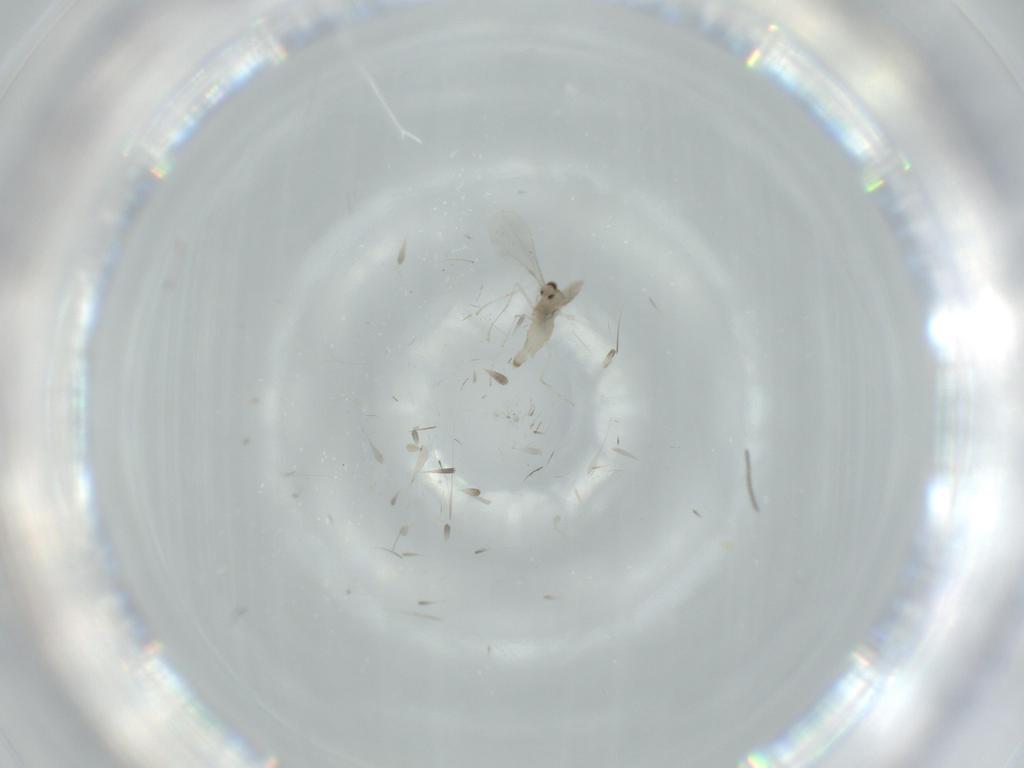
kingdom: Animalia
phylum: Arthropoda
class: Insecta
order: Diptera
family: Cecidomyiidae
